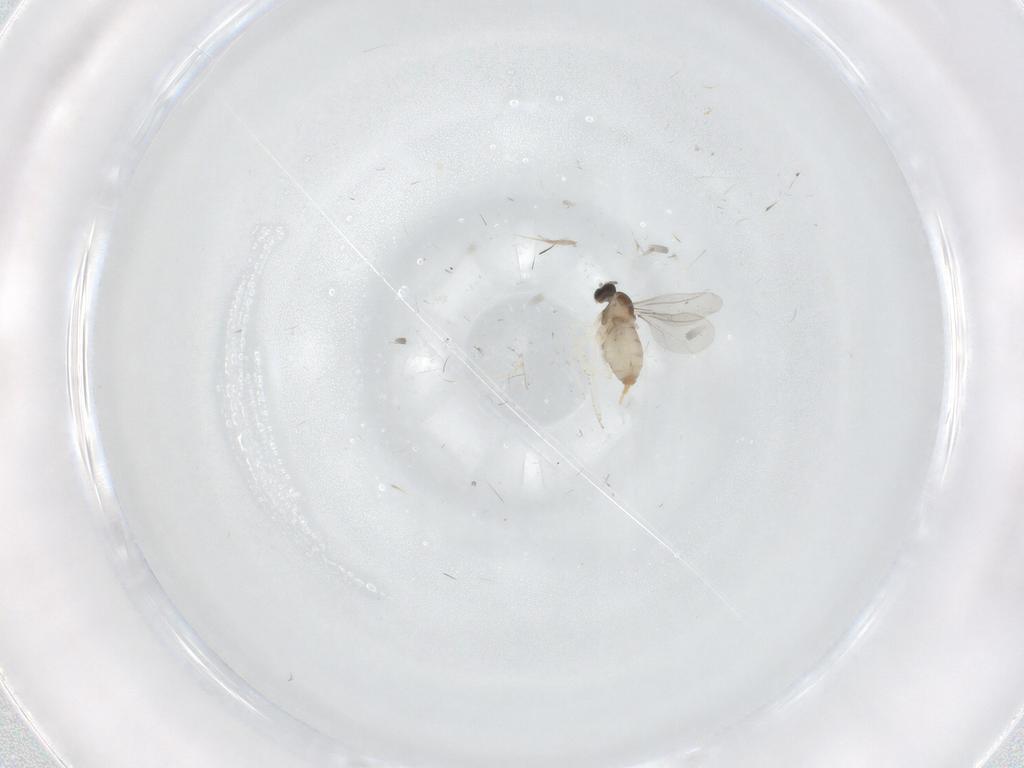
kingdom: Animalia
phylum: Arthropoda
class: Insecta
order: Diptera
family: Cecidomyiidae
